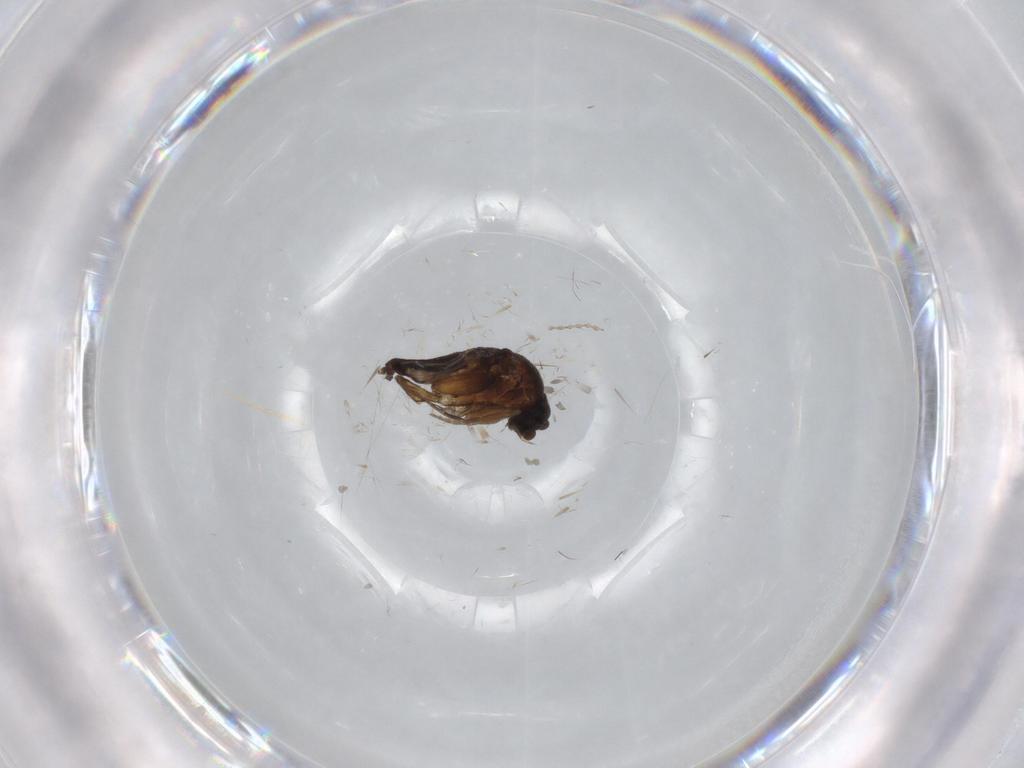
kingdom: Animalia
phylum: Arthropoda
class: Insecta
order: Diptera
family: Cecidomyiidae
